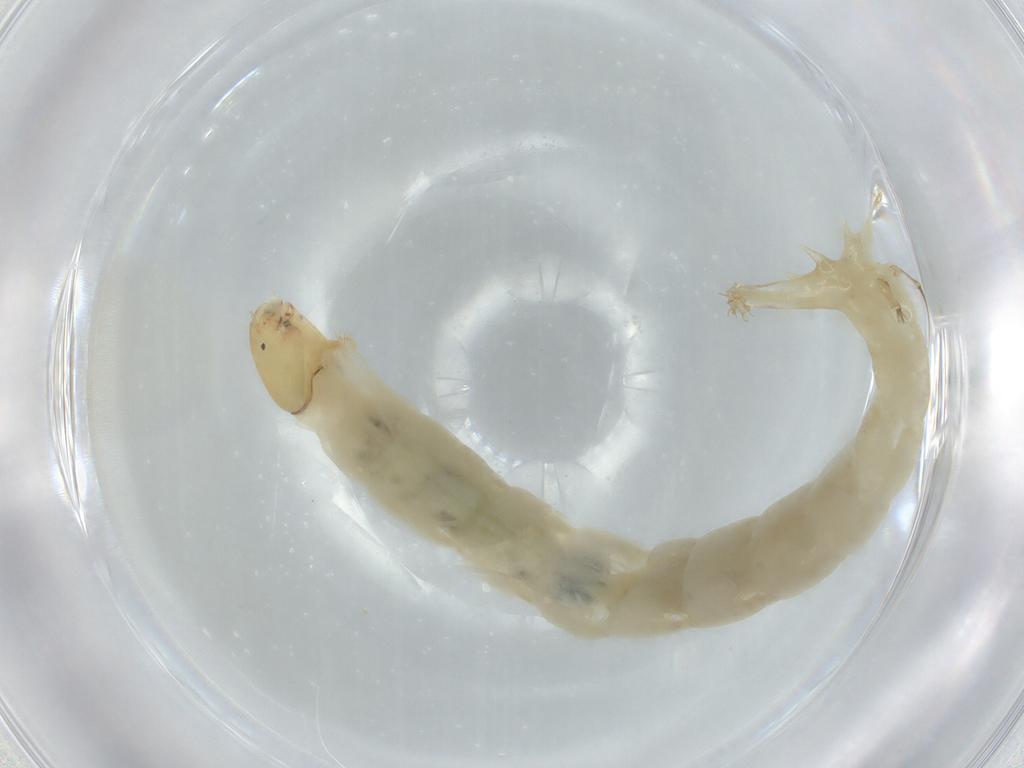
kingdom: Animalia
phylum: Arthropoda
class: Insecta
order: Diptera
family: Chironomidae
